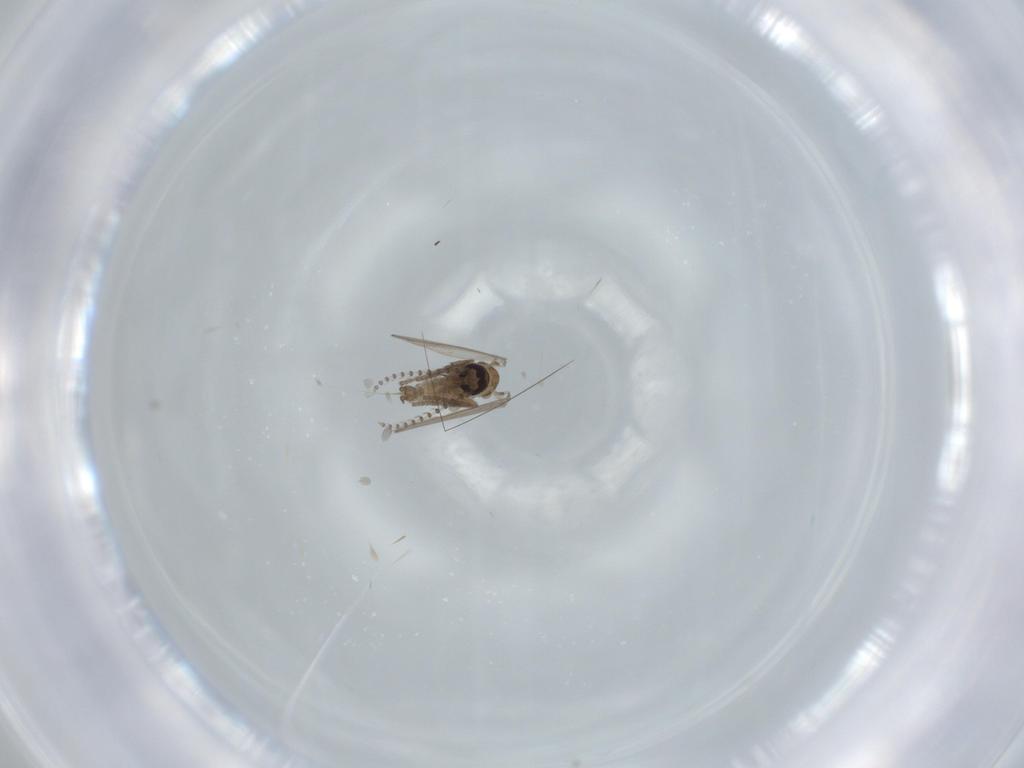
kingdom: Animalia
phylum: Arthropoda
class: Insecta
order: Diptera
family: Psychodidae
